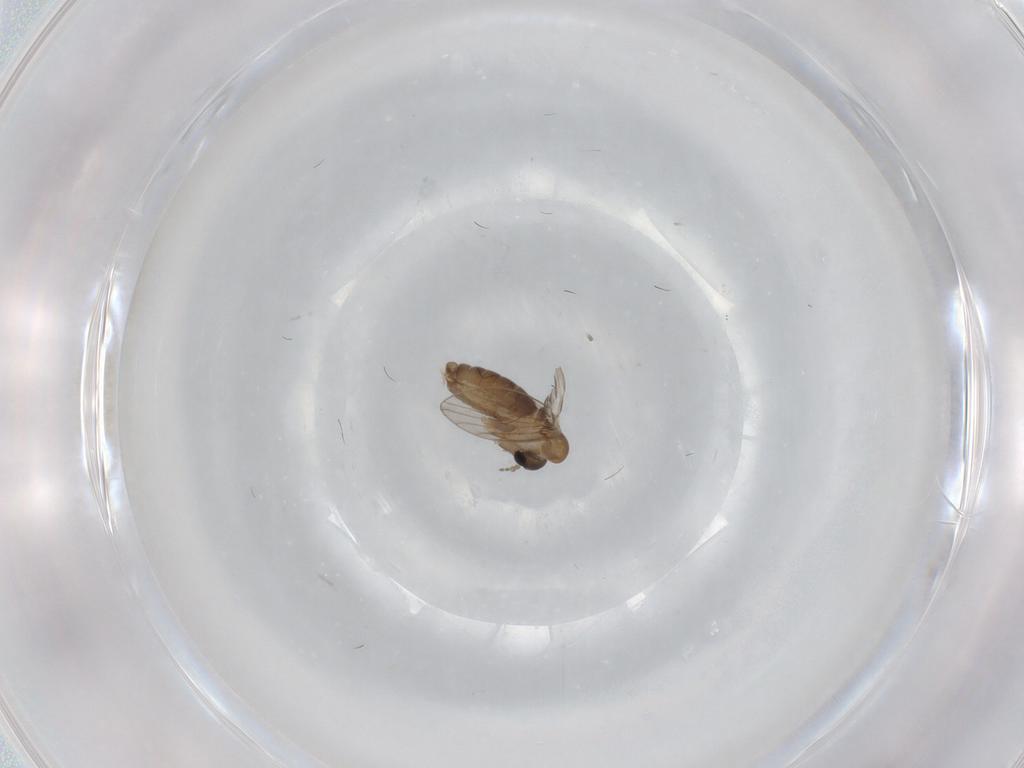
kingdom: Animalia
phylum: Arthropoda
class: Insecta
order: Diptera
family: Psychodidae
